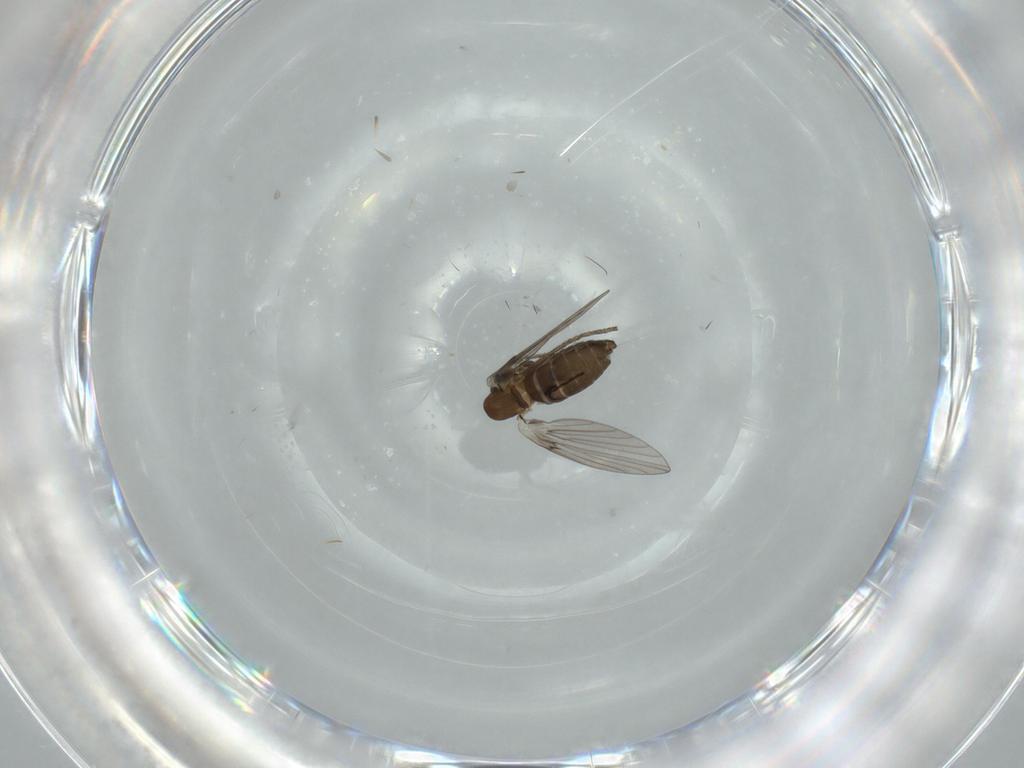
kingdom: Animalia
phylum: Arthropoda
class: Insecta
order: Diptera
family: Psychodidae
